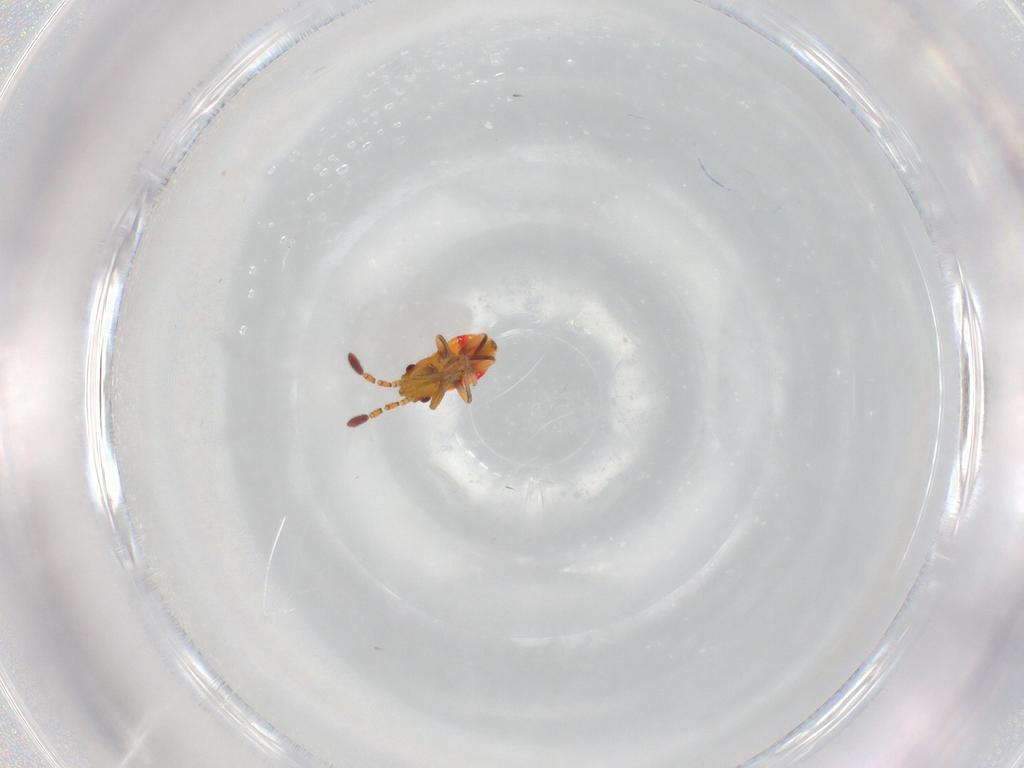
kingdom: Animalia
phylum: Arthropoda
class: Insecta
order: Hemiptera
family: Rhyparochromidae
